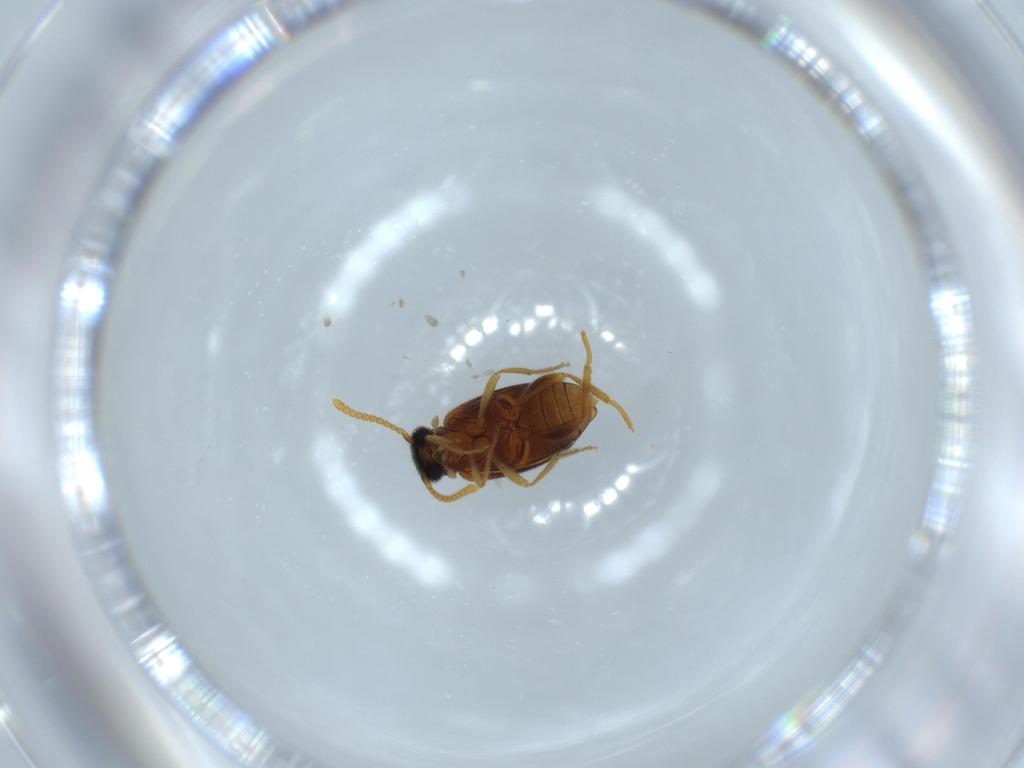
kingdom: Animalia
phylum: Arthropoda
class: Insecta
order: Coleoptera
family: Aderidae
